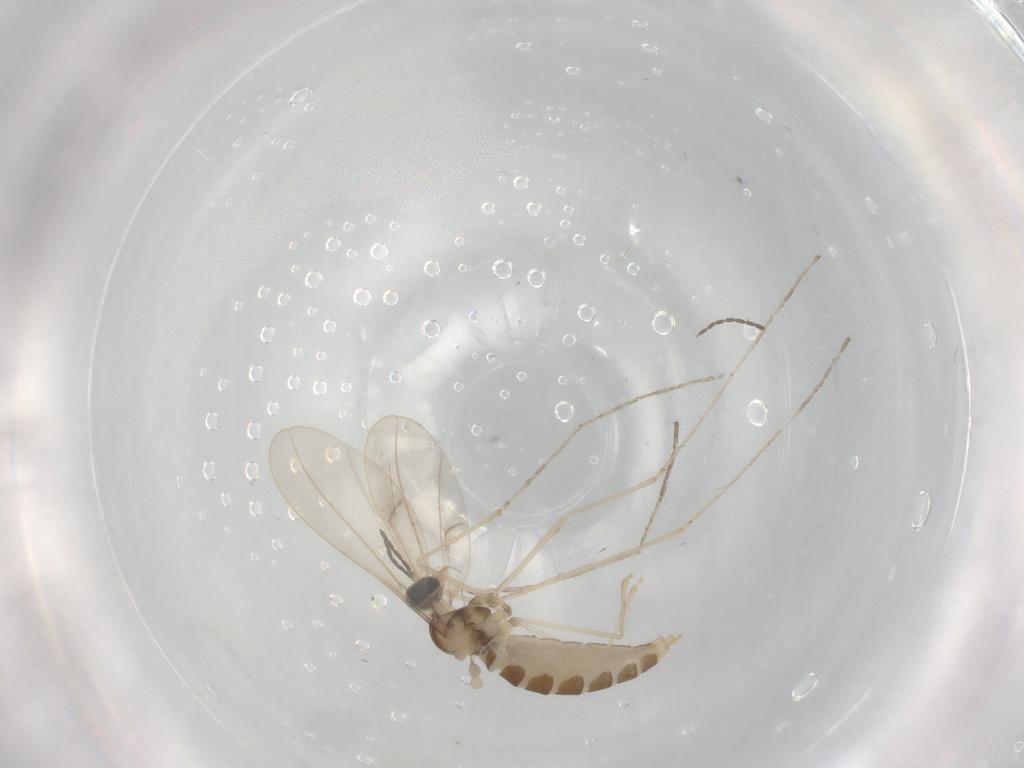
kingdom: Animalia
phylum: Arthropoda
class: Insecta
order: Diptera
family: Cecidomyiidae
